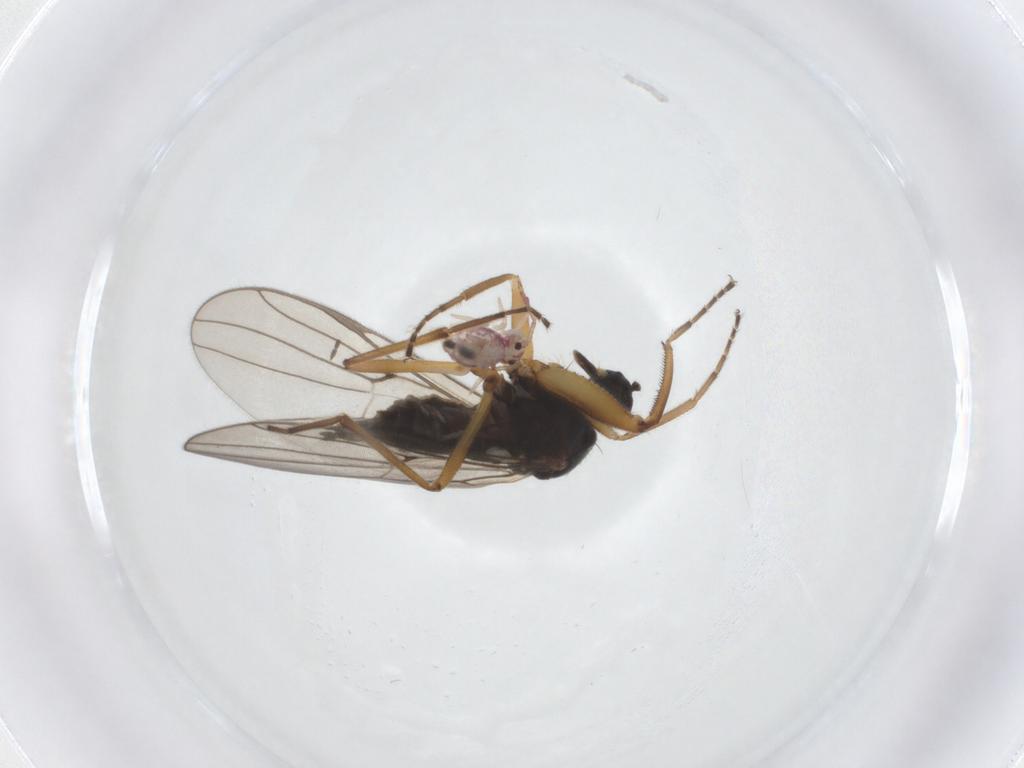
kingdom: Animalia
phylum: Arthropoda
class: Insecta
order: Diptera
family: Hybotidae
